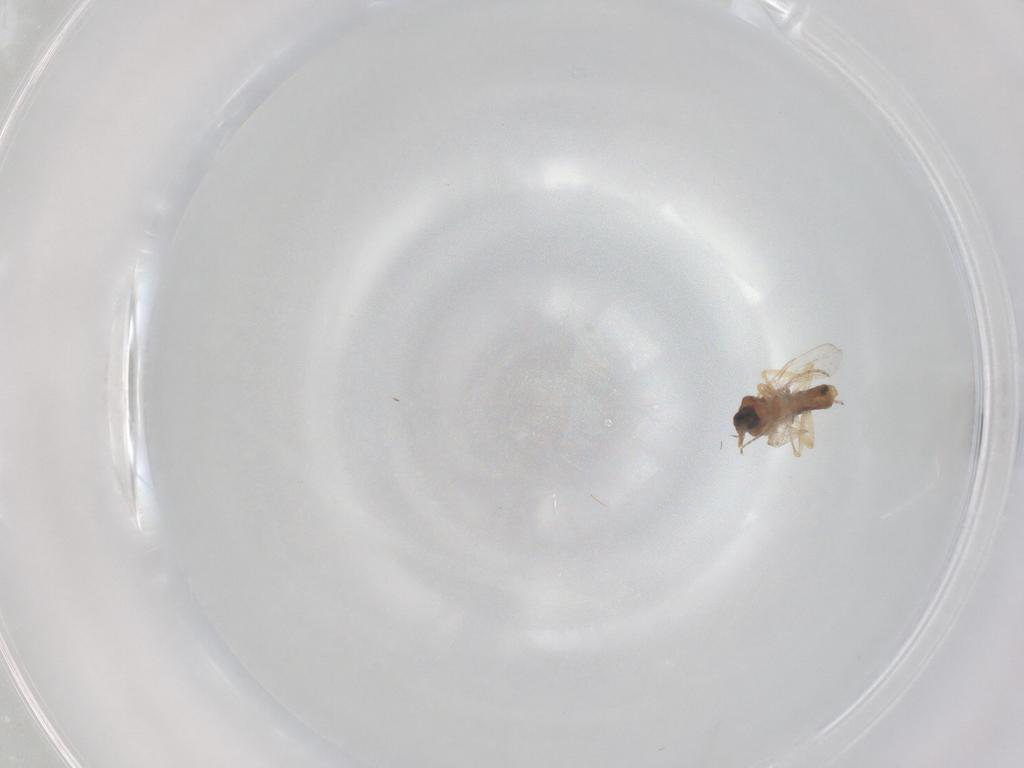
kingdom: Animalia
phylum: Arthropoda
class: Insecta
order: Diptera
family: Ceratopogonidae
